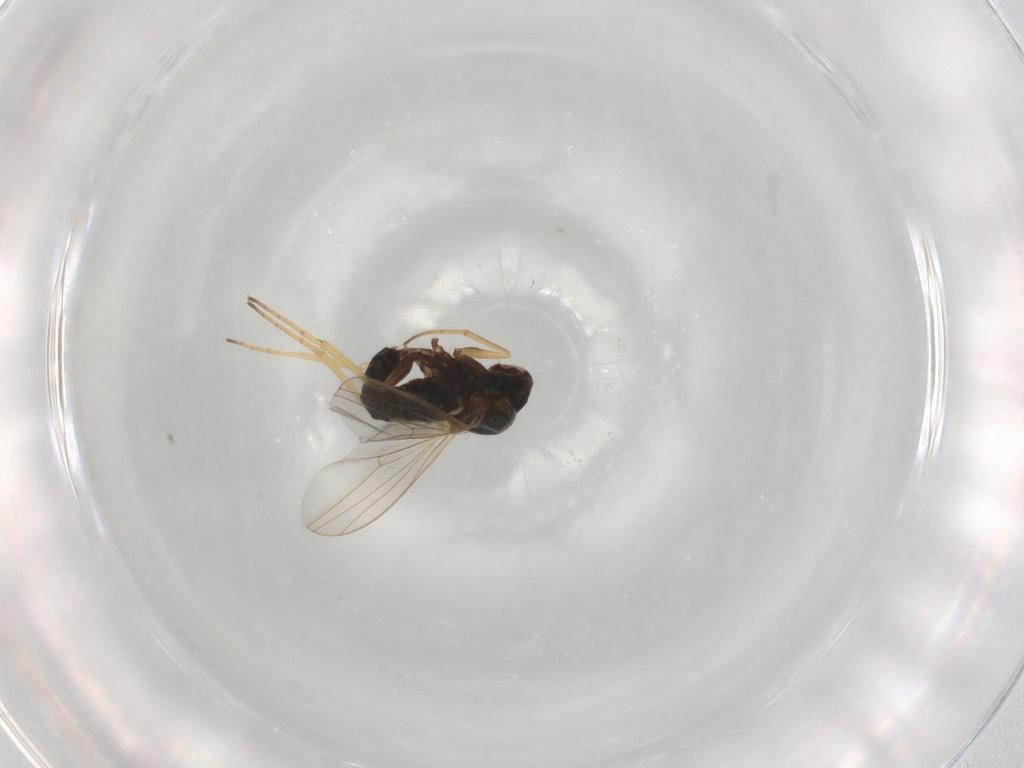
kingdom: Animalia
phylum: Arthropoda
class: Insecta
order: Diptera
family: Dolichopodidae
